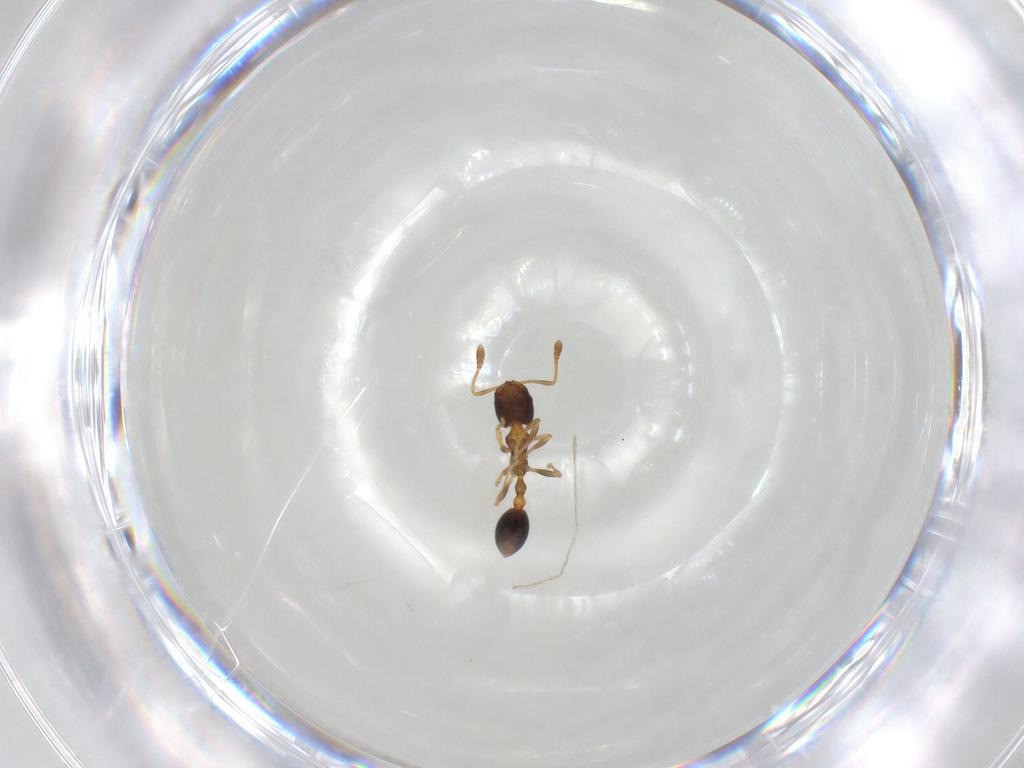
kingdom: Animalia
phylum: Arthropoda
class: Insecta
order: Hymenoptera
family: Formicidae
